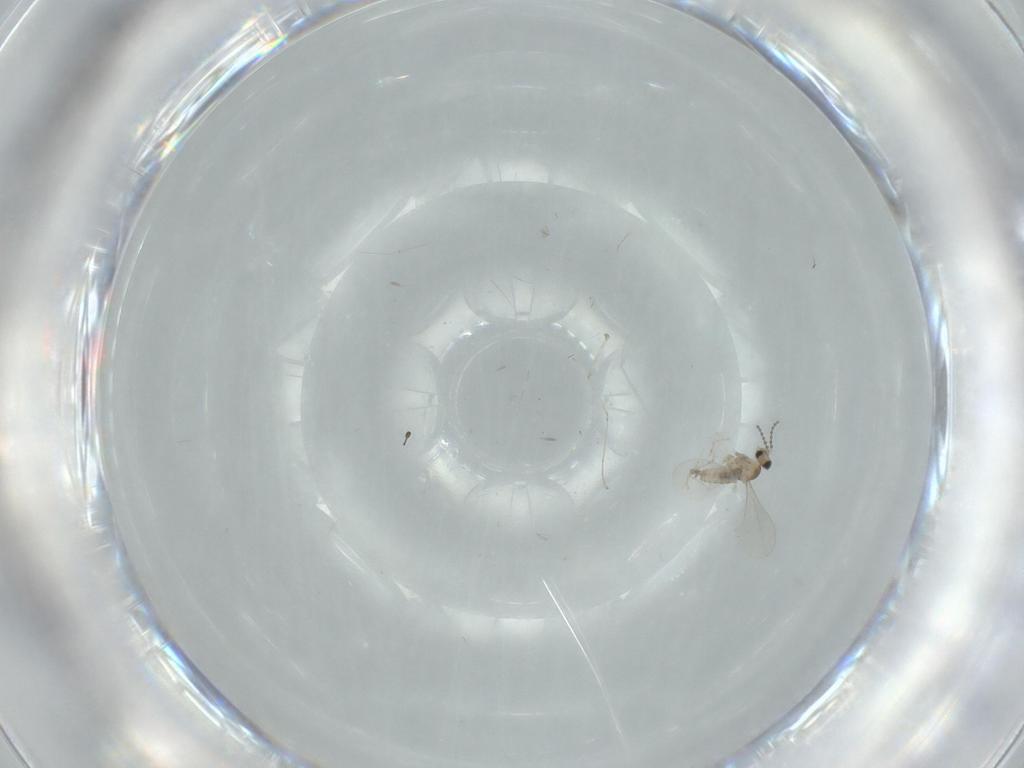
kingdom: Animalia
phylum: Arthropoda
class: Insecta
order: Diptera
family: Cecidomyiidae
